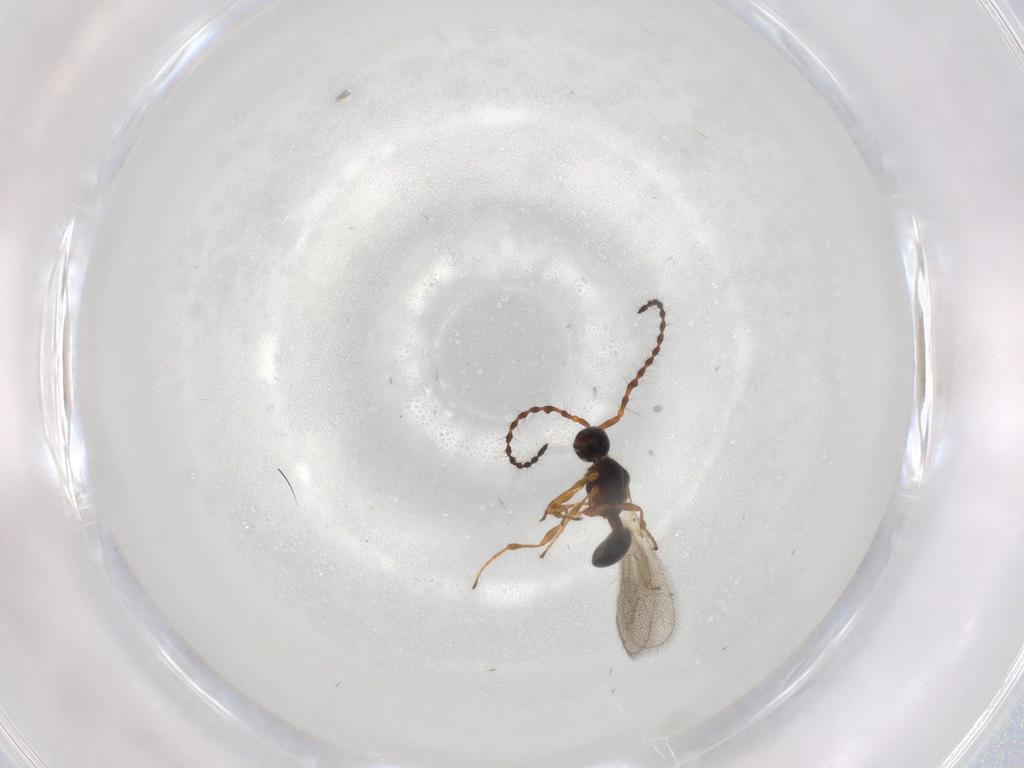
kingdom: Animalia
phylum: Arthropoda
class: Insecta
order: Hymenoptera
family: Diapriidae
